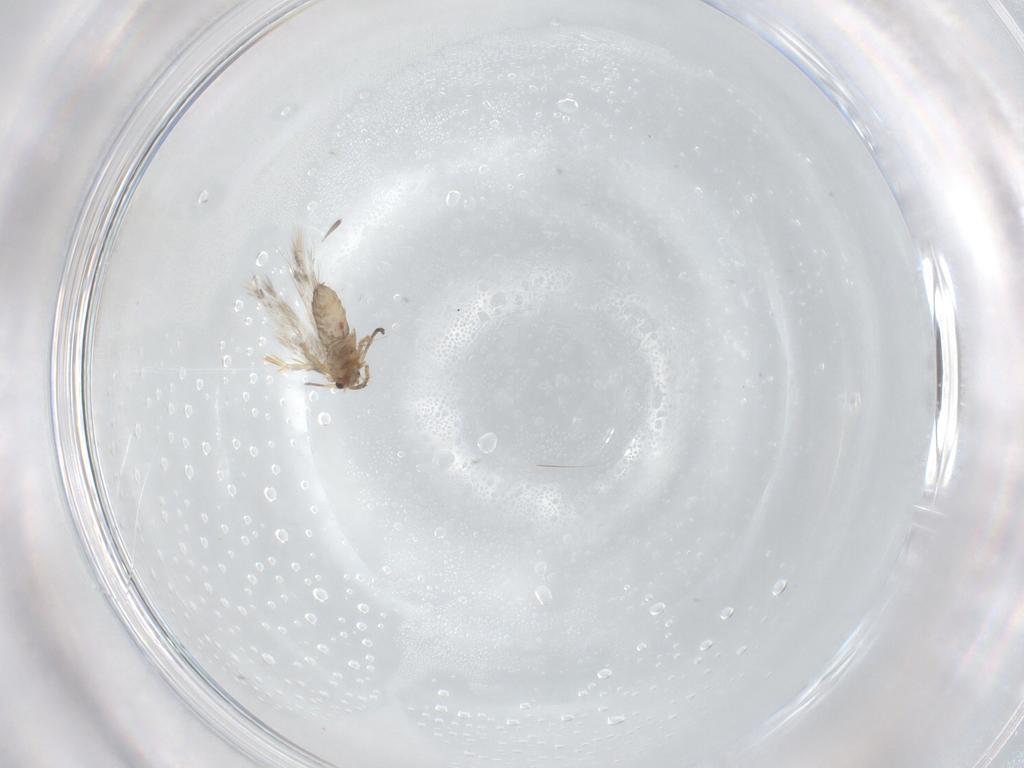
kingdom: Animalia
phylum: Arthropoda
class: Insecta
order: Lepidoptera
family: Nepticulidae
